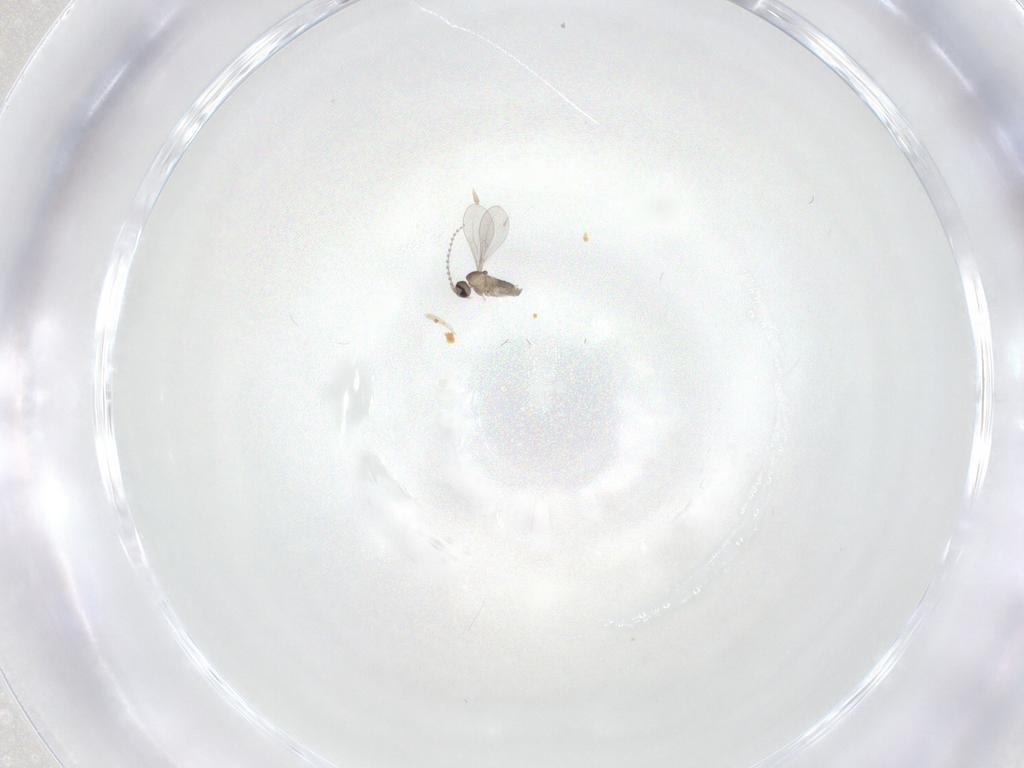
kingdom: Animalia
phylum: Arthropoda
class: Insecta
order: Diptera
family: Cecidomyiidae
